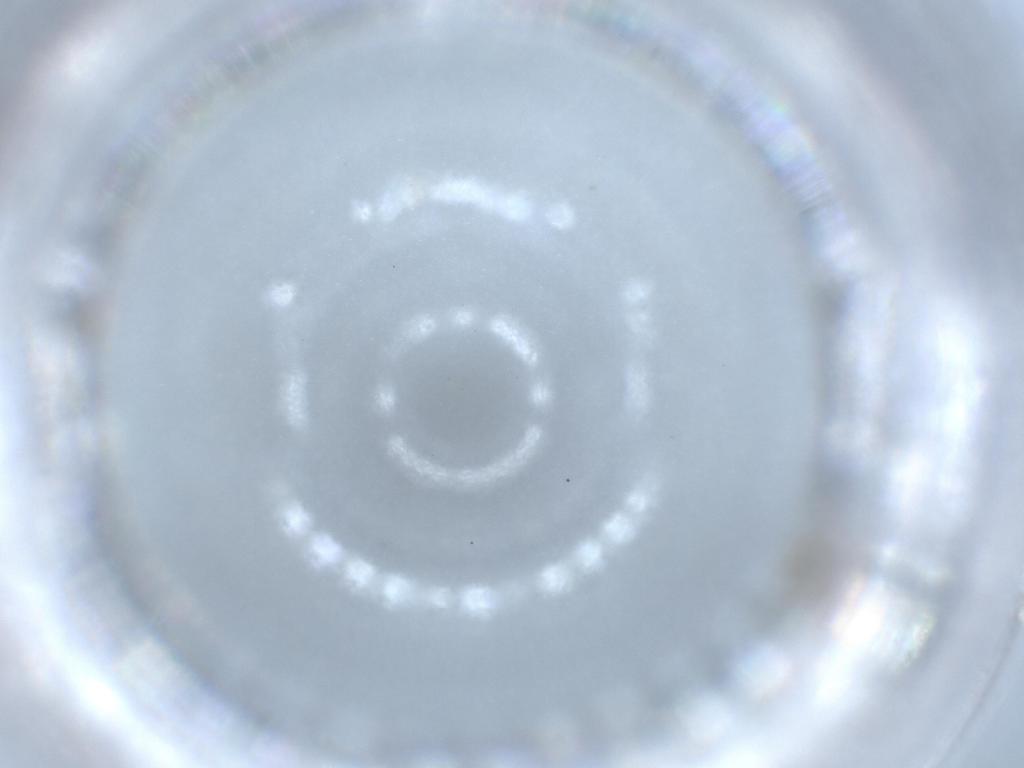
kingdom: Animalia
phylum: Arthropoda
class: Insecta
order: Diptera
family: Chironomidae
